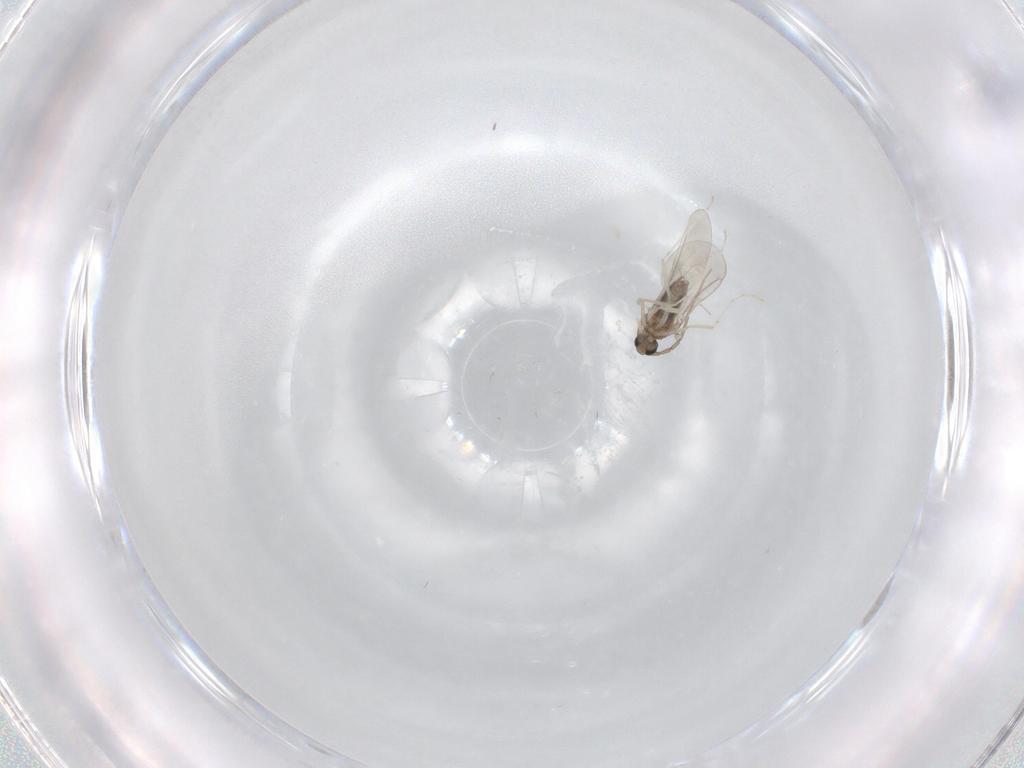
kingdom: Animalia
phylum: Arthropoda
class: Insecta
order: Diptera
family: Cecidomyiidae
